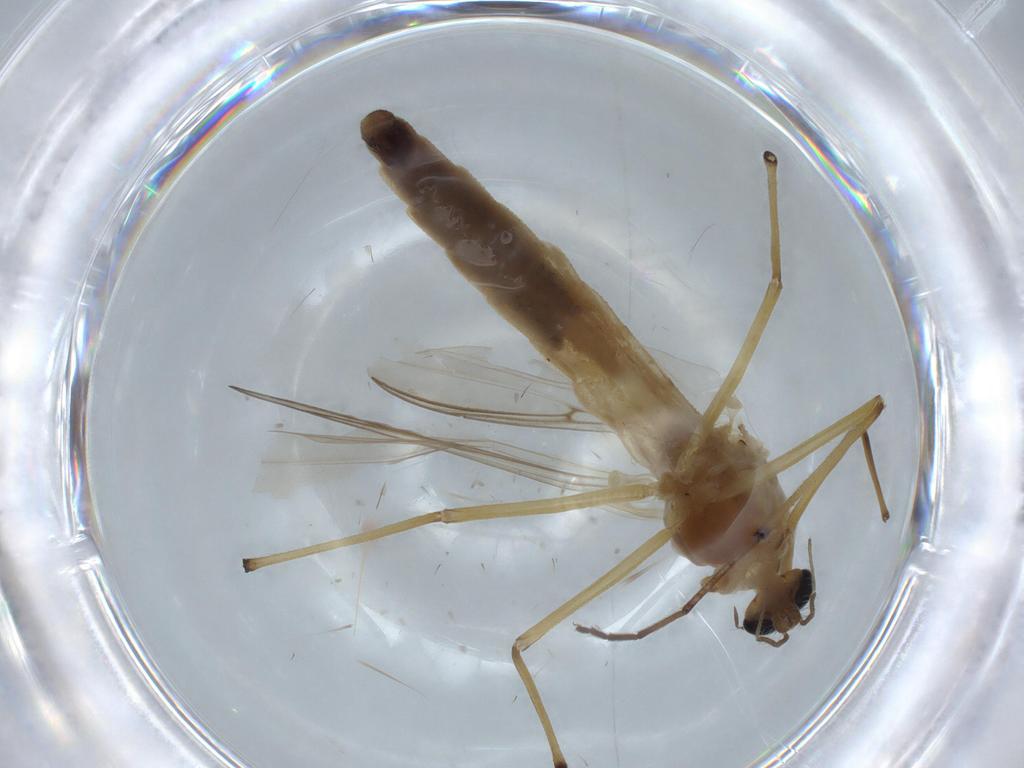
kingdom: Animalia
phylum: Arthropoda
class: Insecta
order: Diptera
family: Chironomidae
